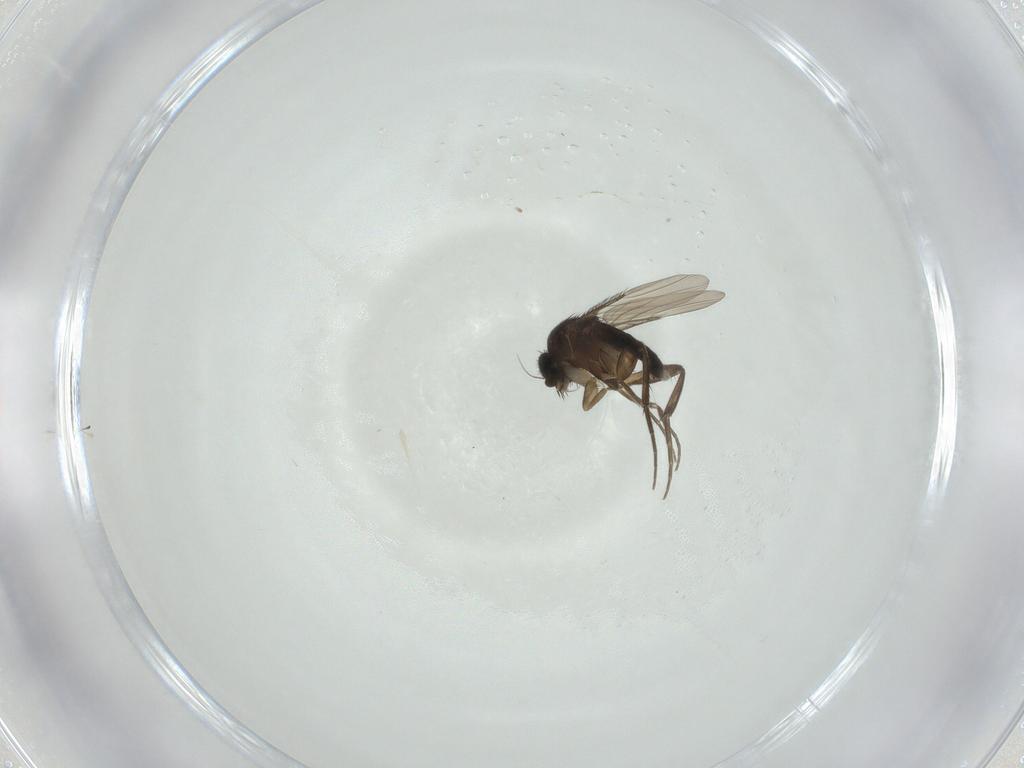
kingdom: Animalia
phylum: Arthropoda
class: Insecta
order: Diptera
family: Phoridae
